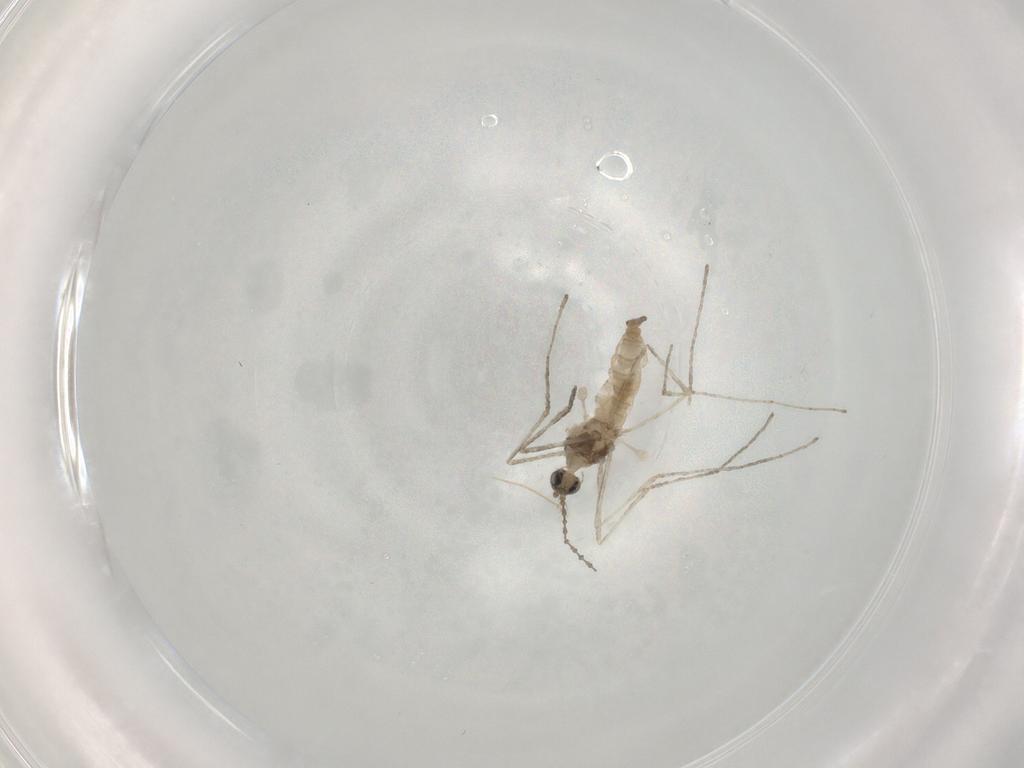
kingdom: Animalia
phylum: Arthropoda
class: Insecta
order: Diptera
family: Cecidomyiidae
